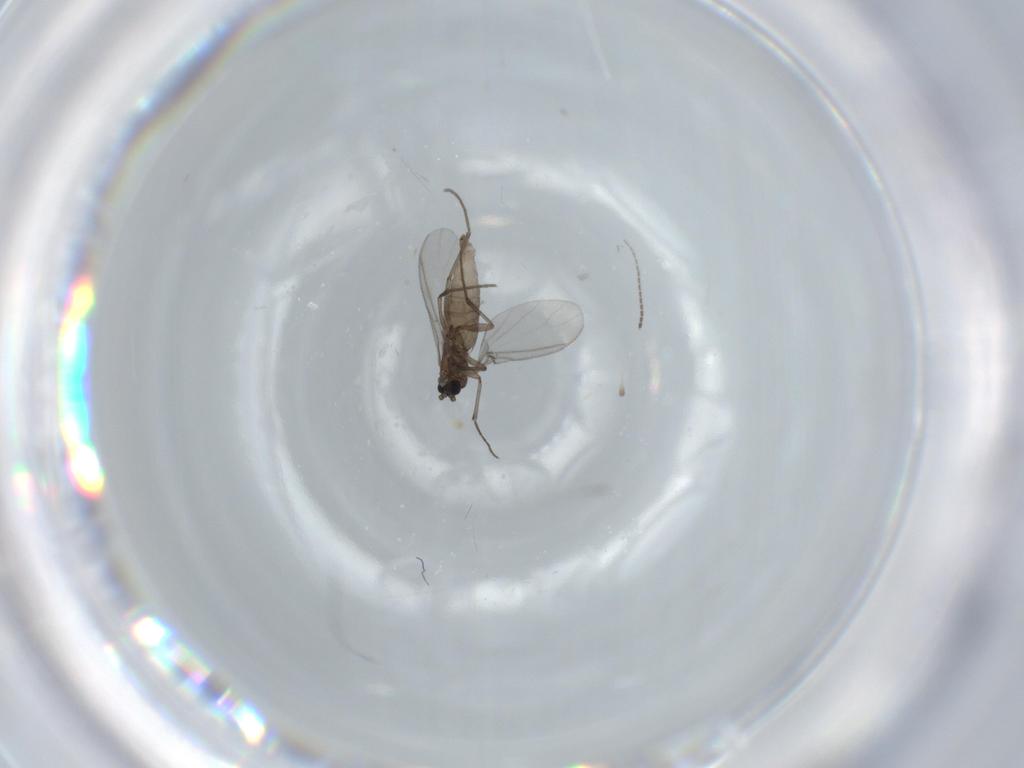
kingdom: Animalia
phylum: Arthropoda
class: Insecta
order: Diptera
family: Sciaridae
